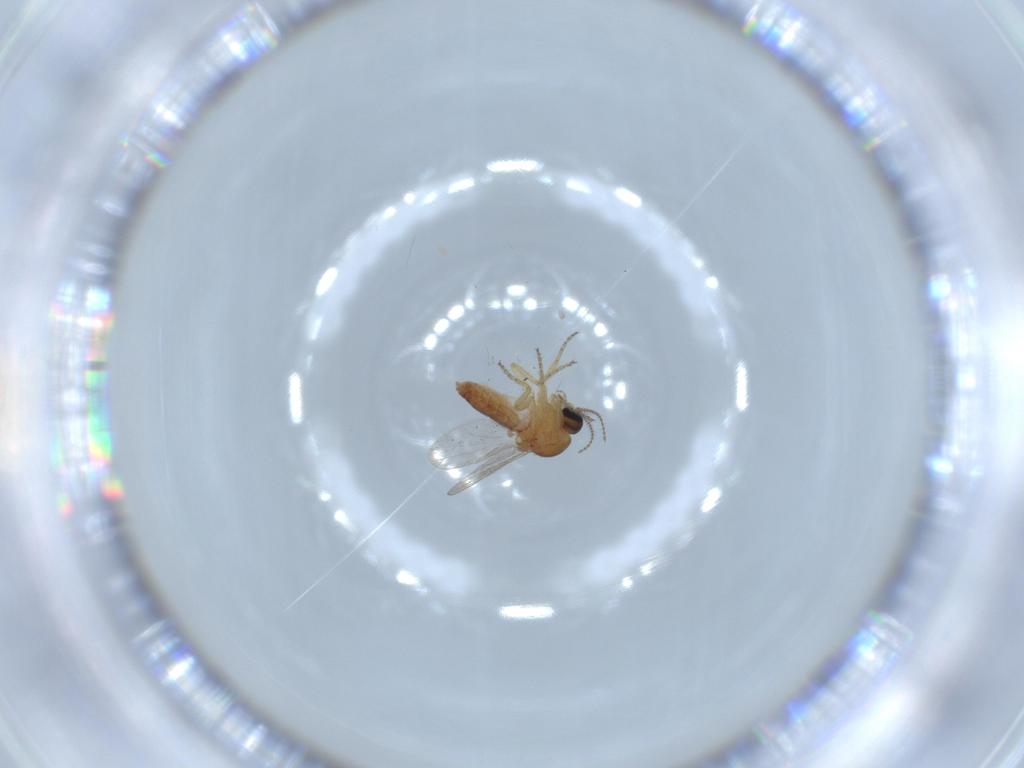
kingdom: Animalia
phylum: Arthropoda
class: Insecta
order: Diptera
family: Ceratopogonidae
